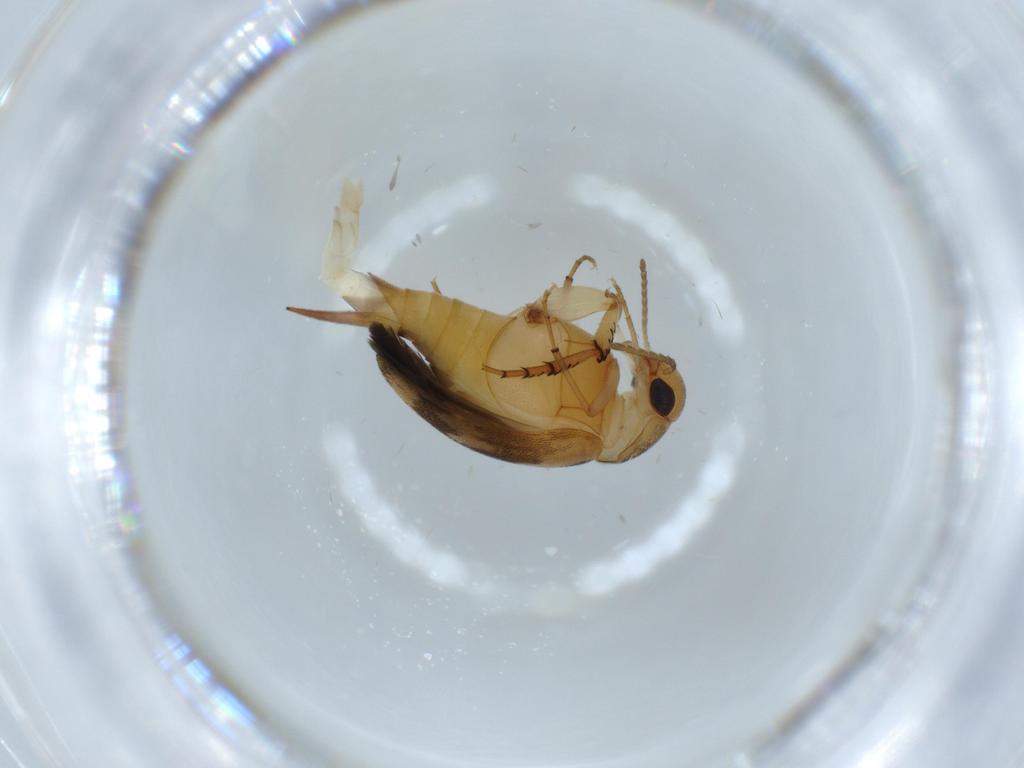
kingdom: Animalia
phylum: Arthropoda
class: Insecta
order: Coleoptera
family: Mordellidae
